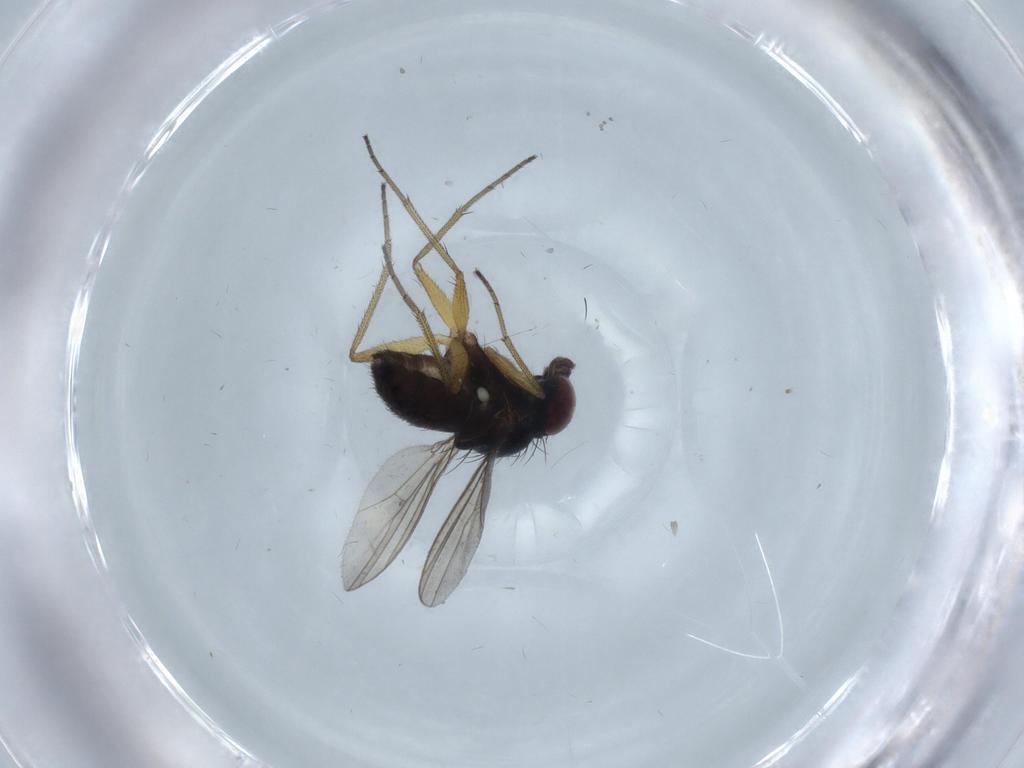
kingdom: Animalia
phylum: Arthropoda
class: Insecta
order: Diptera
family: Dolichopodidae
